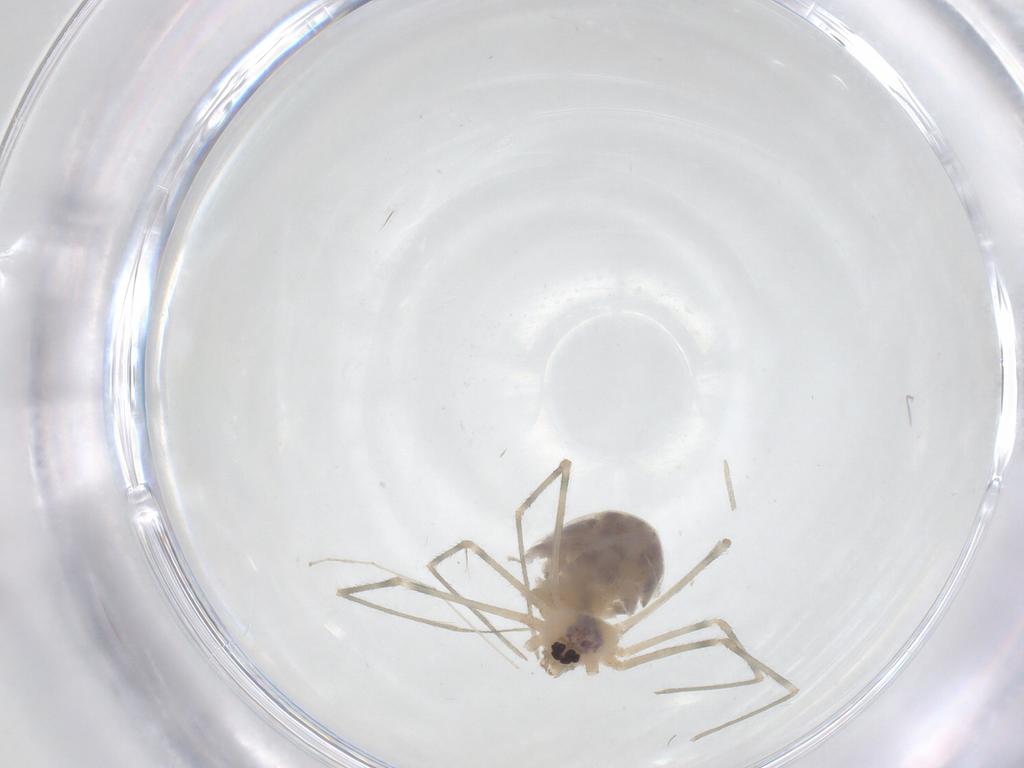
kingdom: Animalia
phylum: Arthropoda
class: Arachnida
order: Araneae
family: Pholcidae
